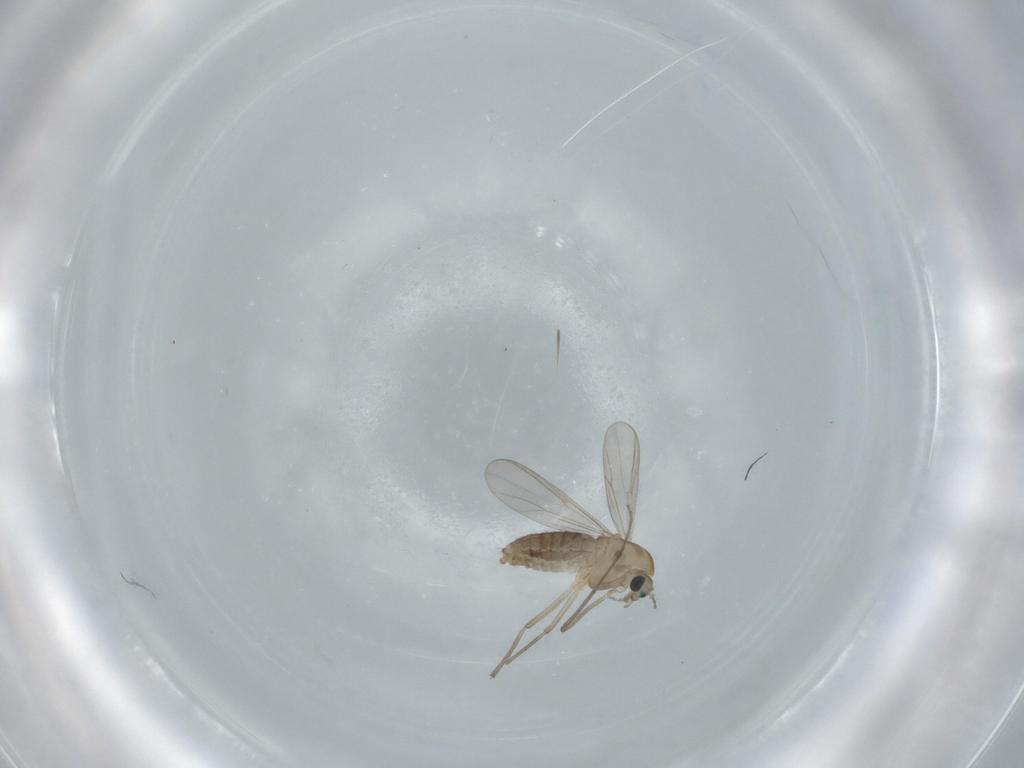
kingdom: Animalia
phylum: Arthropoda
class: Insecta
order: Diptera
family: Chironomidae
